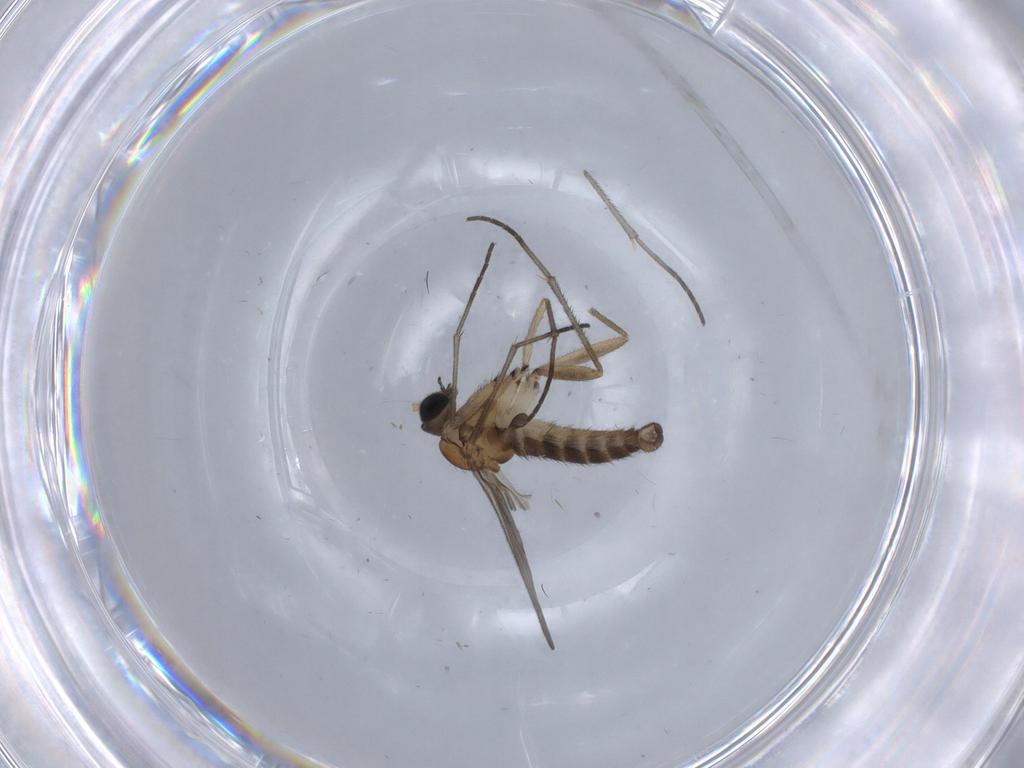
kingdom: Animalia
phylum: Arthropoda
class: Insecta
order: Diptera
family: Sciaridae
